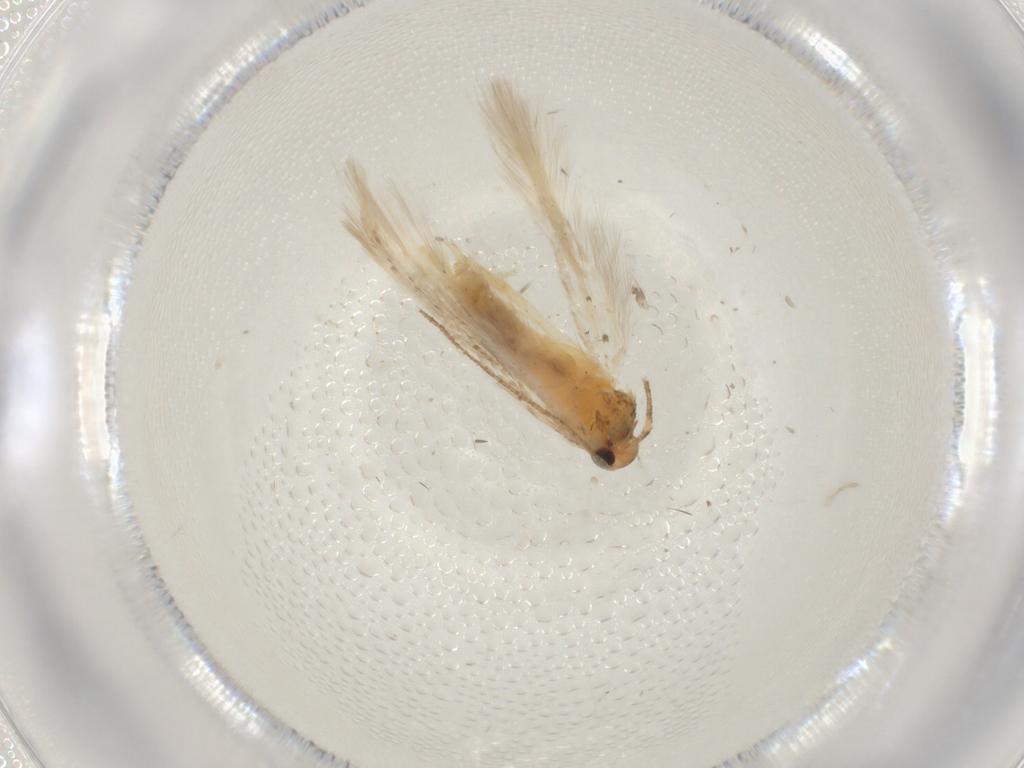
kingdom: Animalia
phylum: Arthropoda
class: Insecta
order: Lepidoptera
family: Gelechiidae
